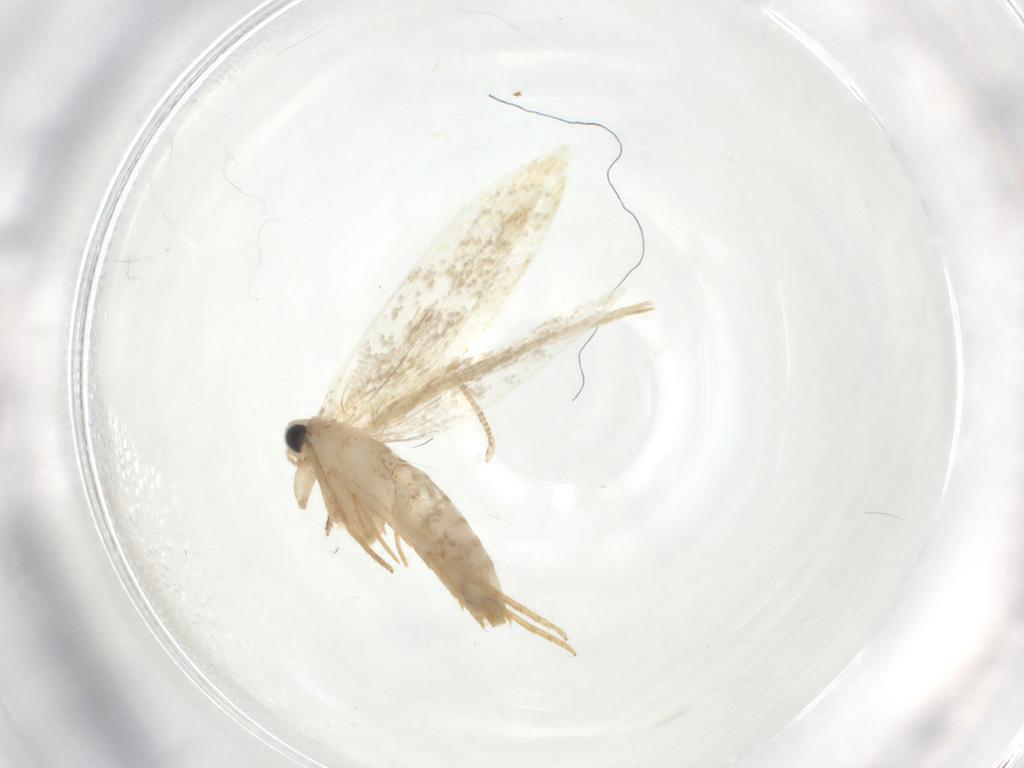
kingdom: Animalia
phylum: Arthropoda
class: Insecta
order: Lepidoptera
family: Tineidae
